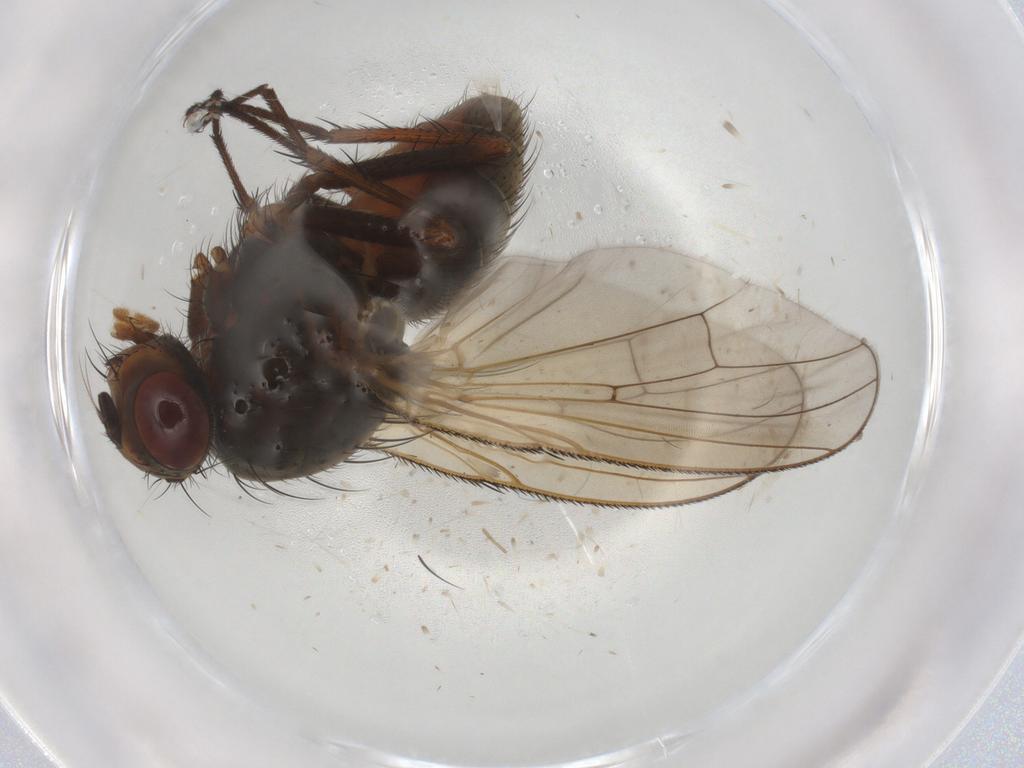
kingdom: Animalia
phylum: Arthropoda
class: Insecta
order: Diptera
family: Anthomyiidae
